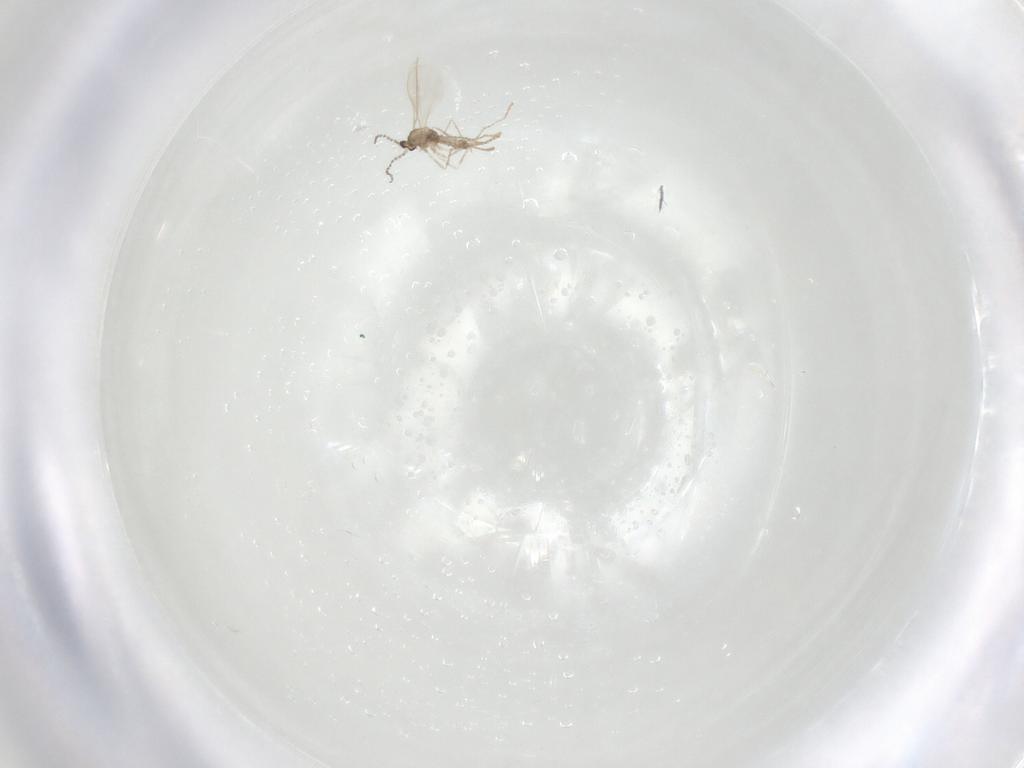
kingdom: Animalia
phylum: Arthropoda
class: Insecta
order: Diptera
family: Cecidomyiidae
